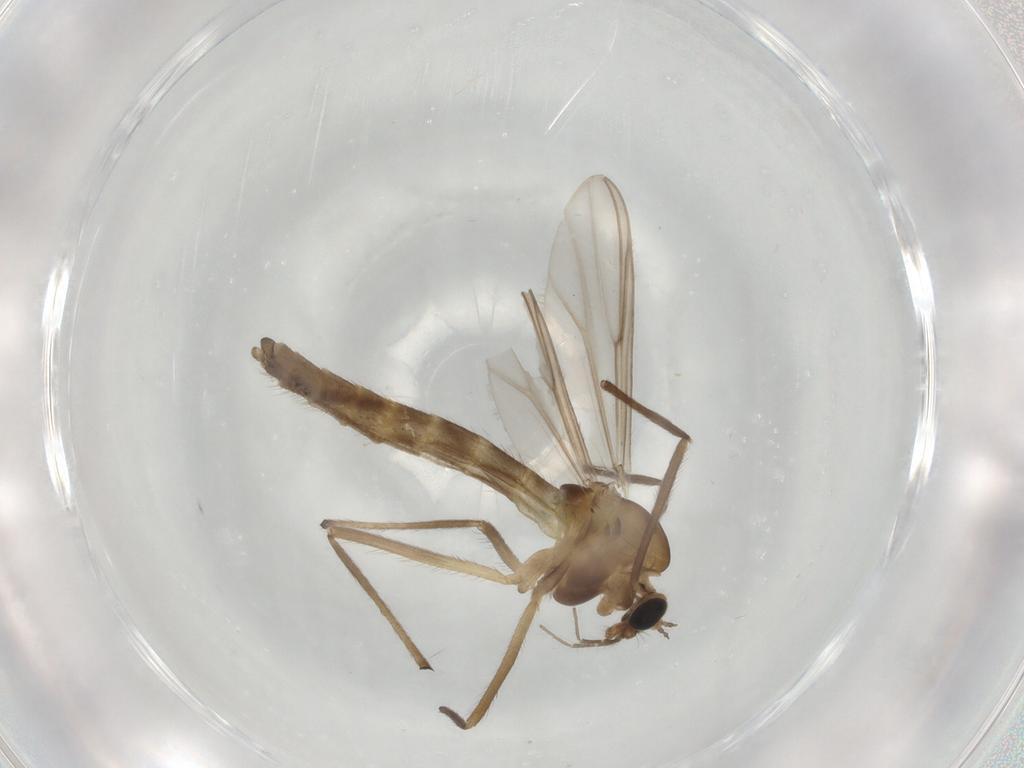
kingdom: Animalia
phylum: Arthropoda
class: Insecta
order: Diptera
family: Chironomidae
